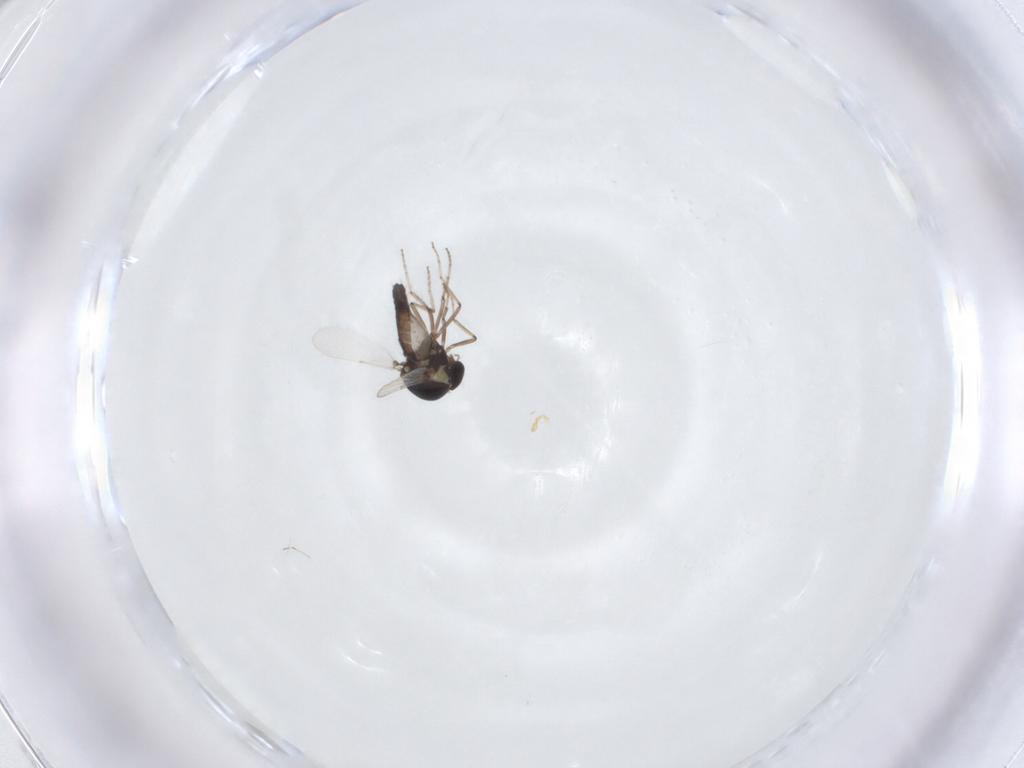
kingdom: Animalia
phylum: Arthropoda
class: Insecta
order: Diptera
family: Ceratopogonidae
